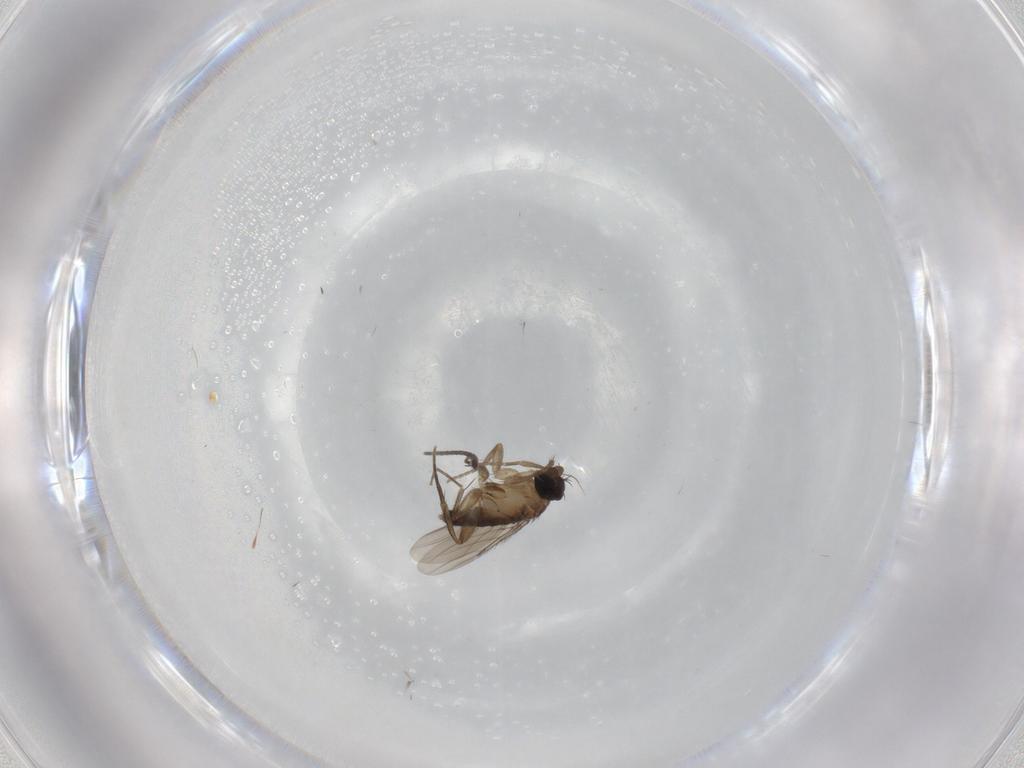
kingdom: Animalia
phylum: Arthropoda
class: Insecta
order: Diptera
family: Phoridae
